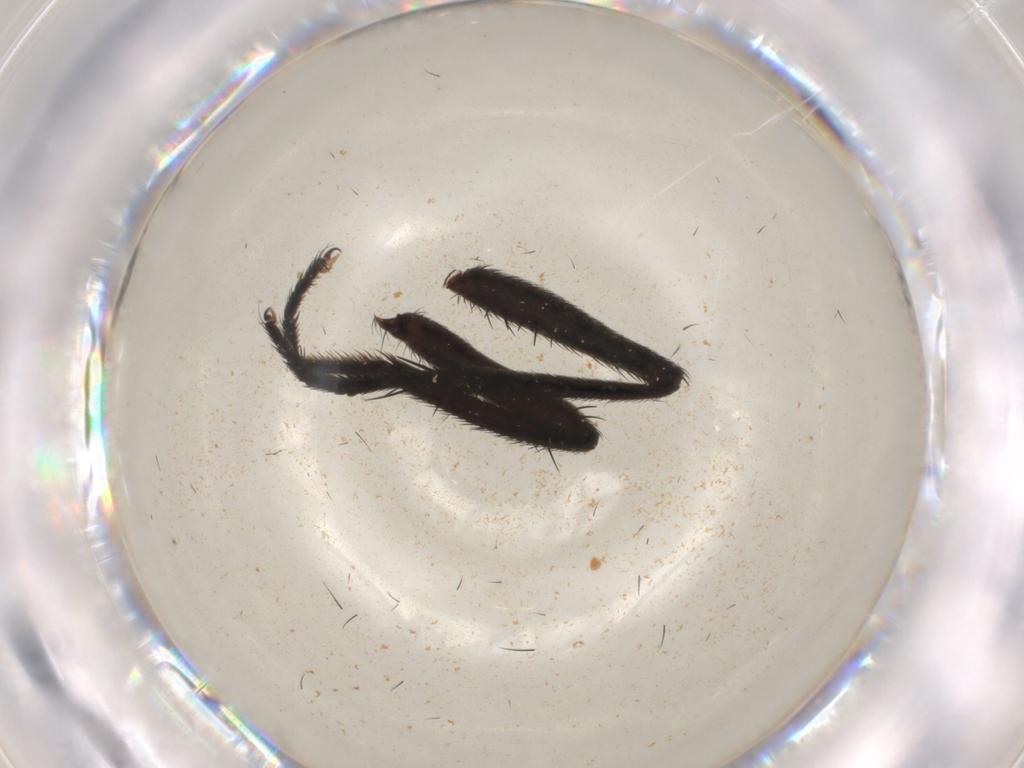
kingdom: Animalia
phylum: Arthropoda
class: Insecta
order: Diptera
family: Muscidae
